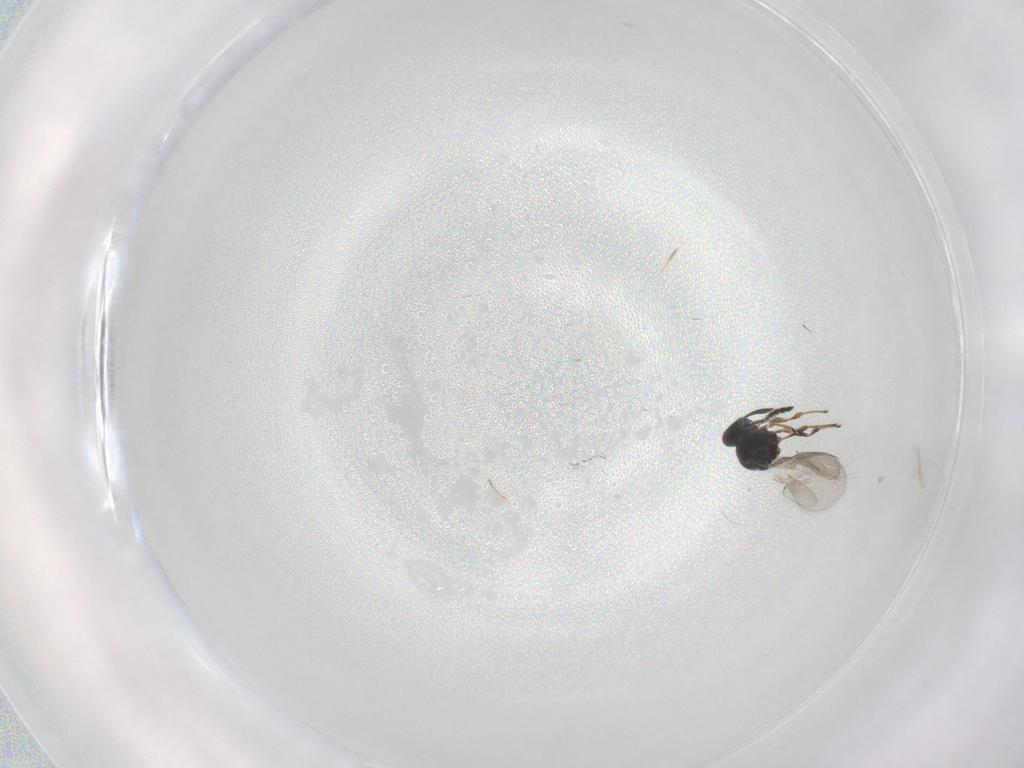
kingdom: Animalia
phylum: Arthropoda
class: Insecta
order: Hymenoptera
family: Platygastridae
